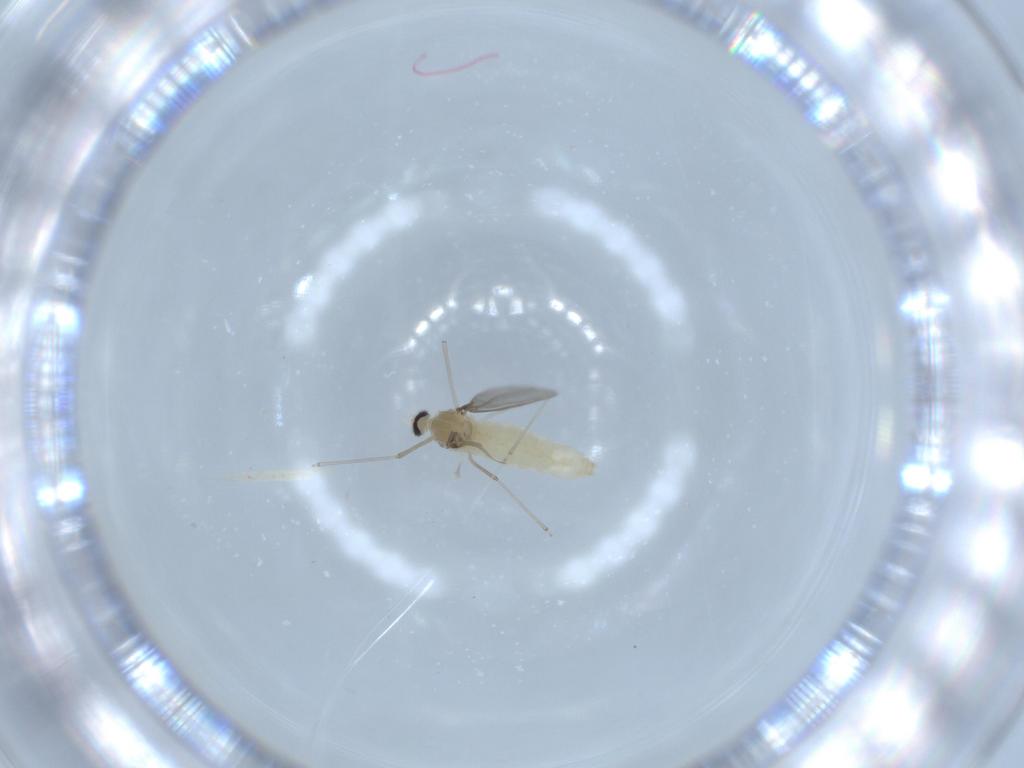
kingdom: Animalia
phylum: Arthropoda
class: Insecta
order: Diptera
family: Cecidomyiidae
